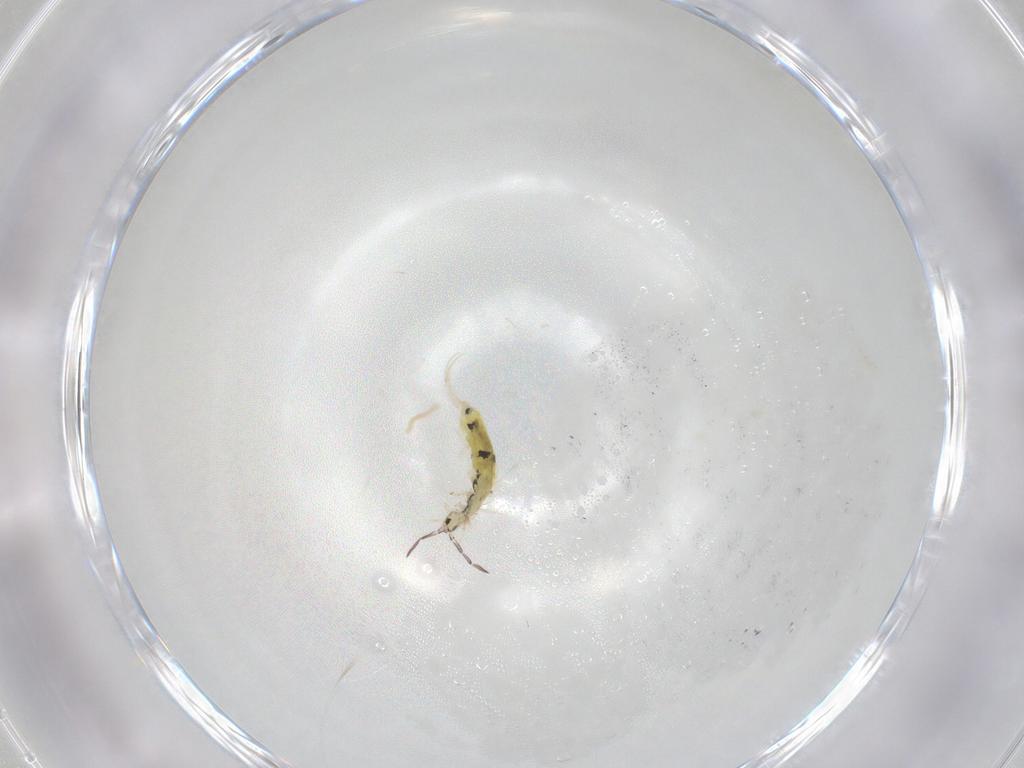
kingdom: Animalia
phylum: Arthropoda
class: Collembola
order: Entomobryomorpha
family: Entomobryidae
